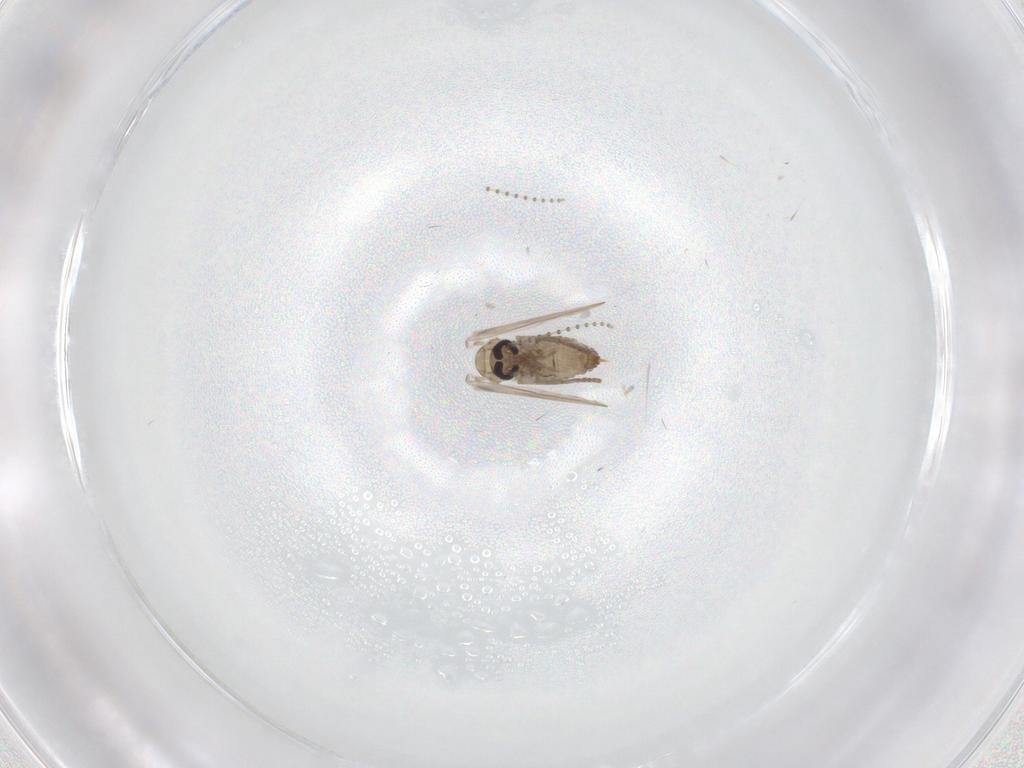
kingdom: Animalia
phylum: Arthropoda
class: Insecta
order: Diptera
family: Psychodidae
